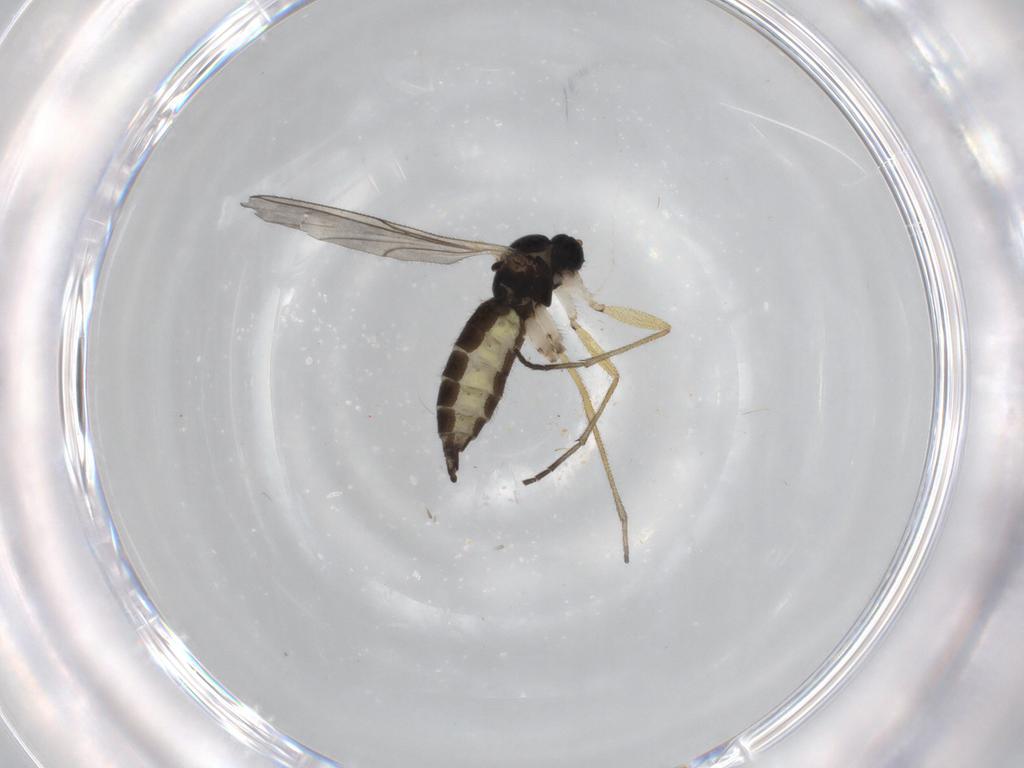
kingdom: Animalia
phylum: Arthropoda
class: Insecta
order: Diptera
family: Sciaridae
